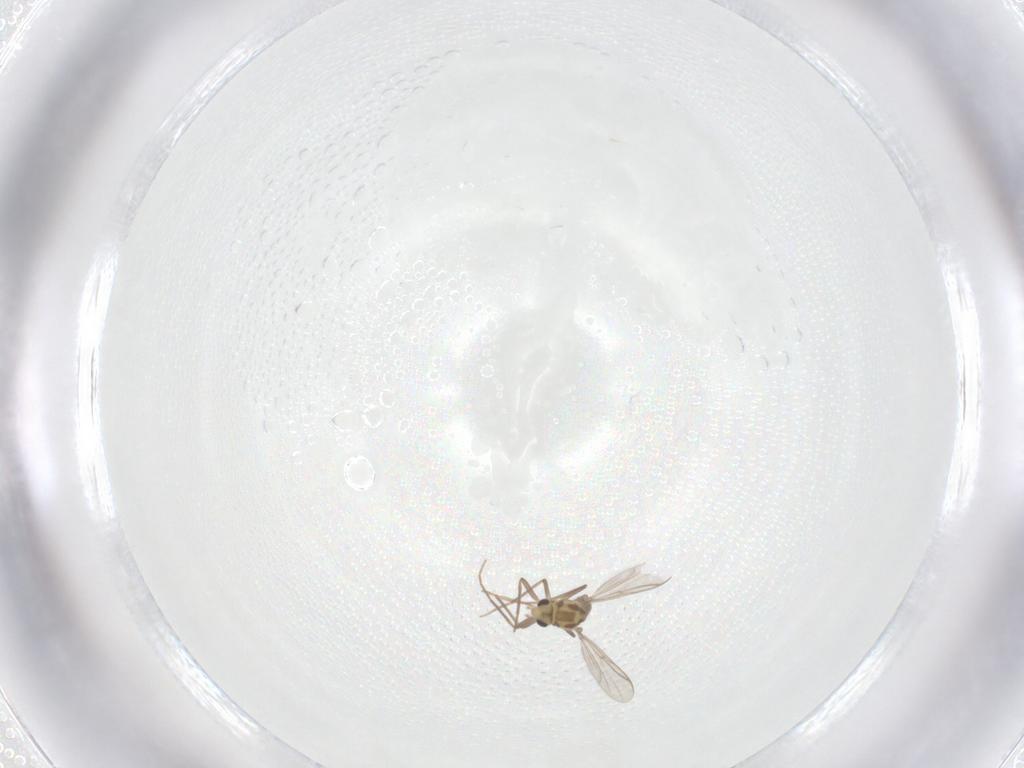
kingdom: Animalia
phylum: Arthropoda
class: Insecta
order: Diptera
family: Chironomidae
